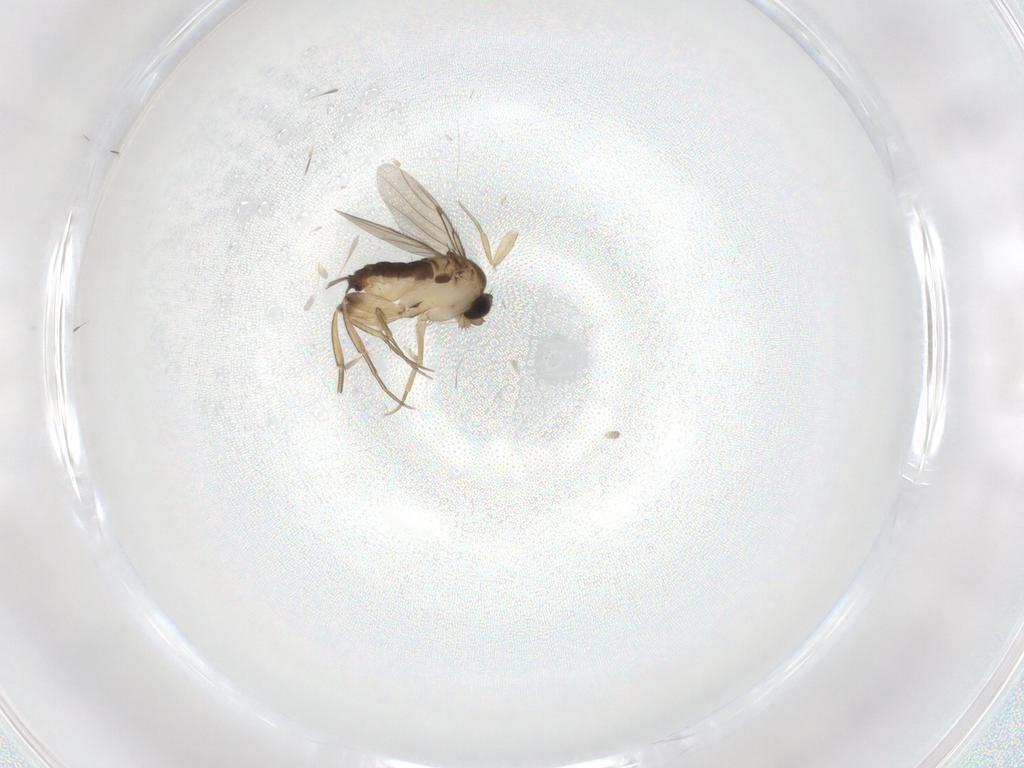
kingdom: Animalia
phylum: Arthropoda
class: Insecta
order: Diptera
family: Phoridae
